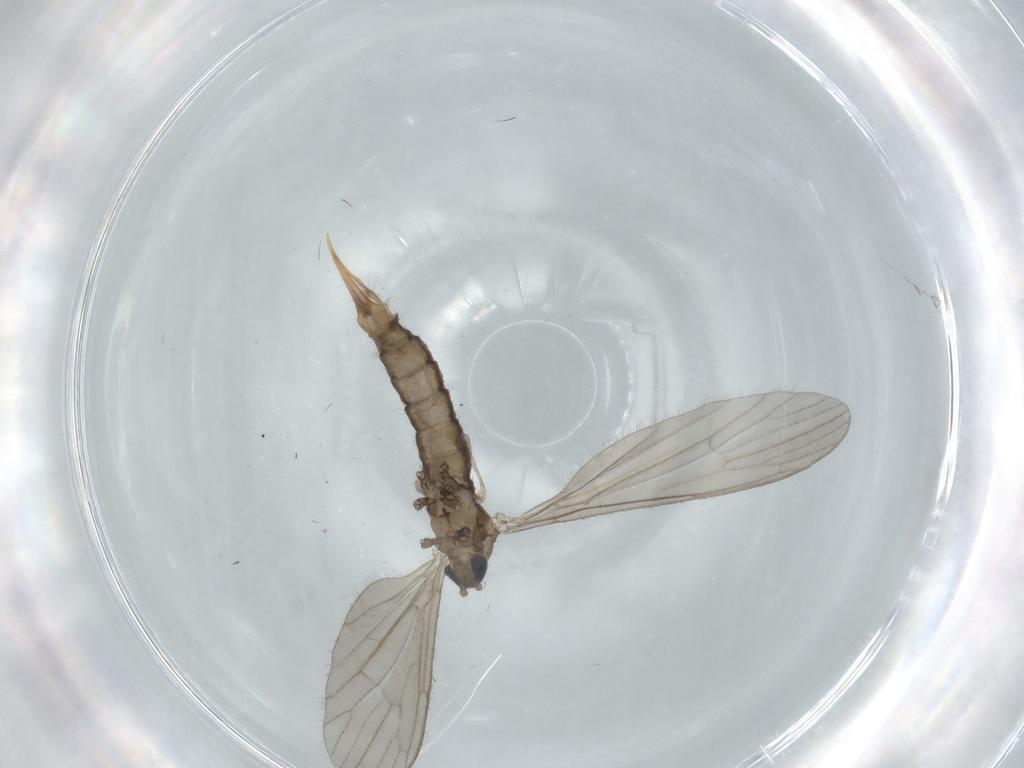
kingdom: Animalia
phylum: Arthropoda
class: Insecta
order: Diptera
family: Limoniidae
